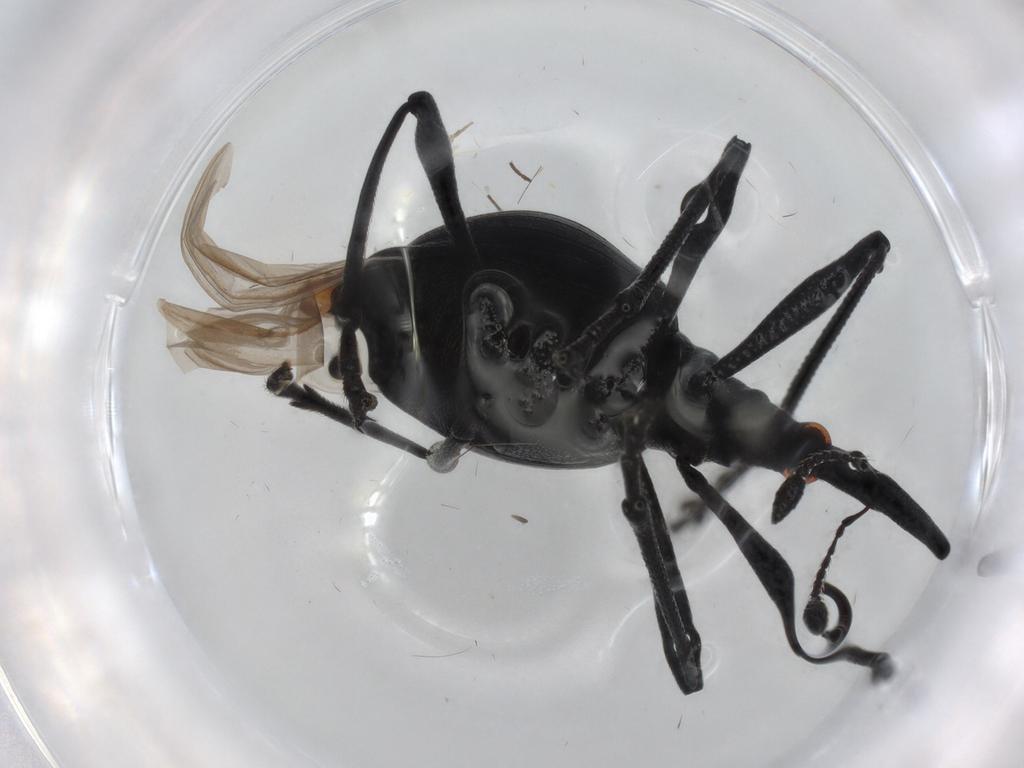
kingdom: Animalia
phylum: Arthropoda
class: Insecta
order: Coleoptera
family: Brentidae
